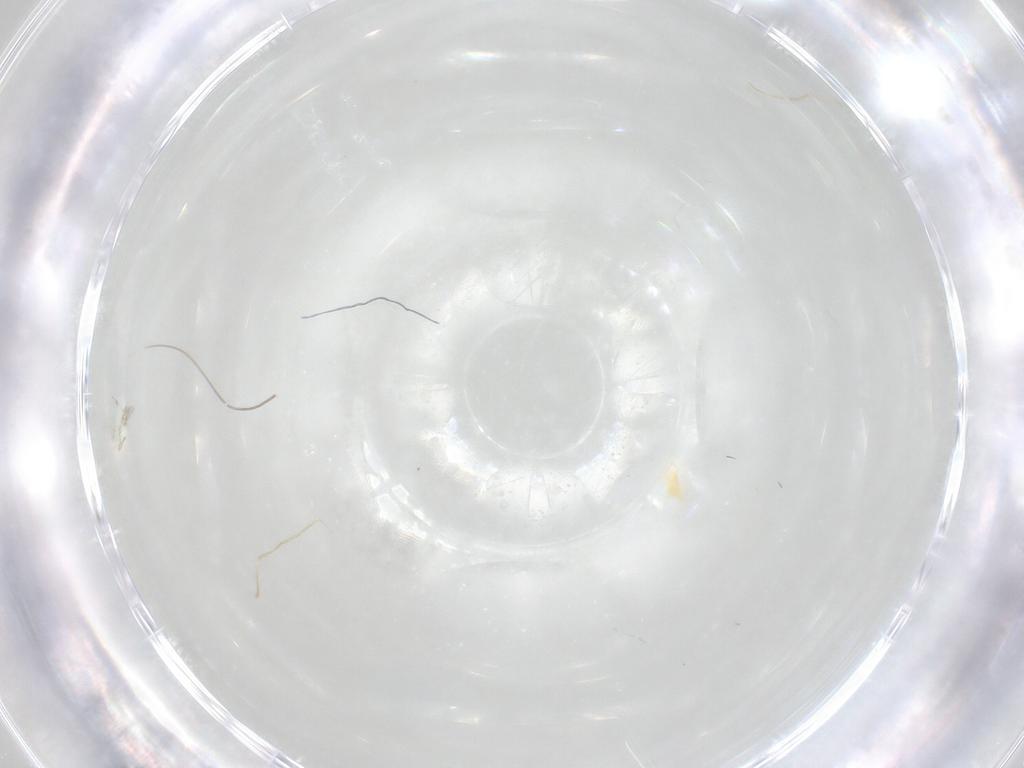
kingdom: Animalia
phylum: Arthropoda
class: Arachnida
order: Trombidiformes
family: Tetranychidae
